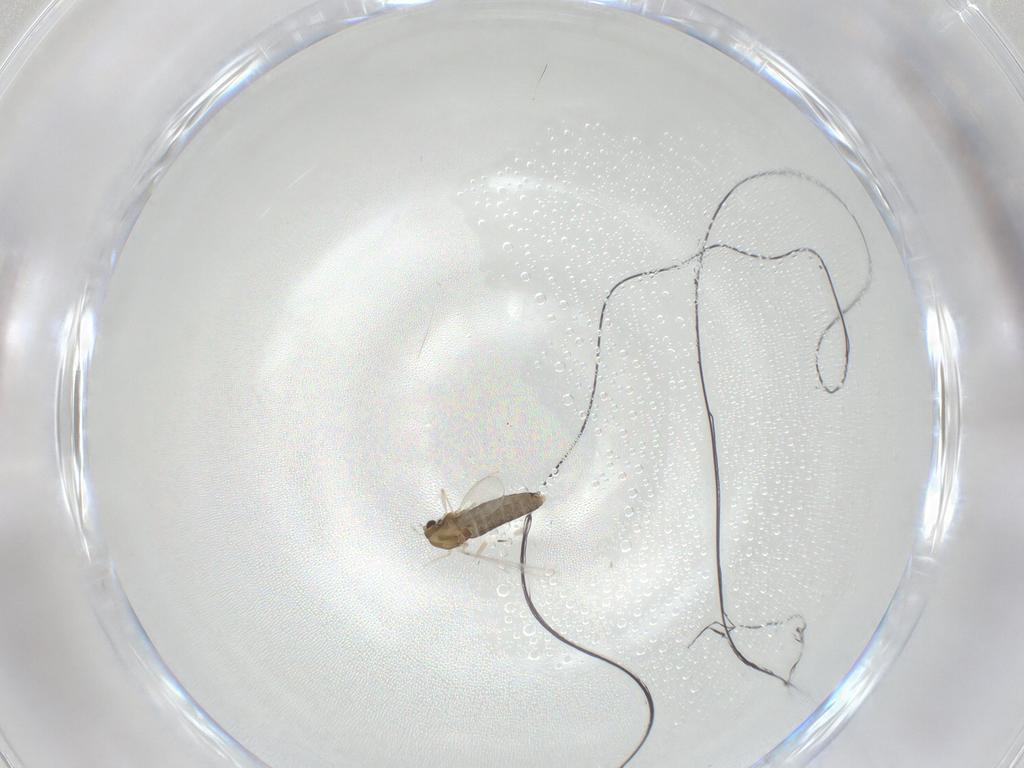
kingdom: Animalia
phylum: Arthropoda
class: Insecta
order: Diptera
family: Chironomidae
